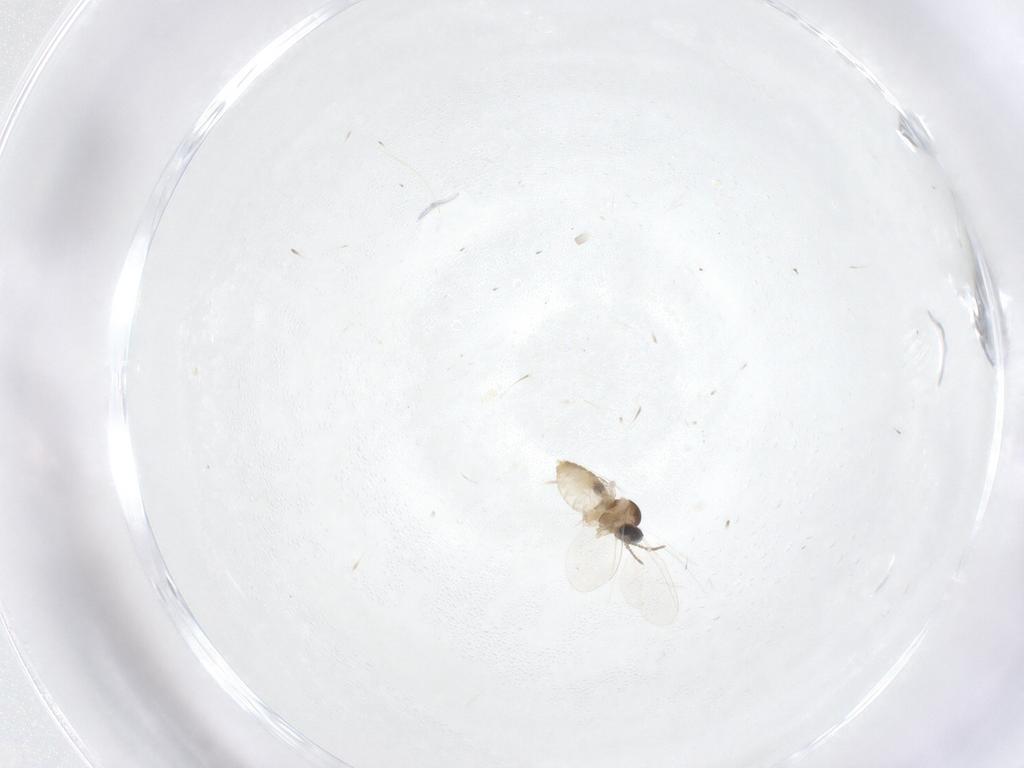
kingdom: Animalia
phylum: Arthropoda
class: Insecta
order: Diptera
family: Cecidomyiidae
